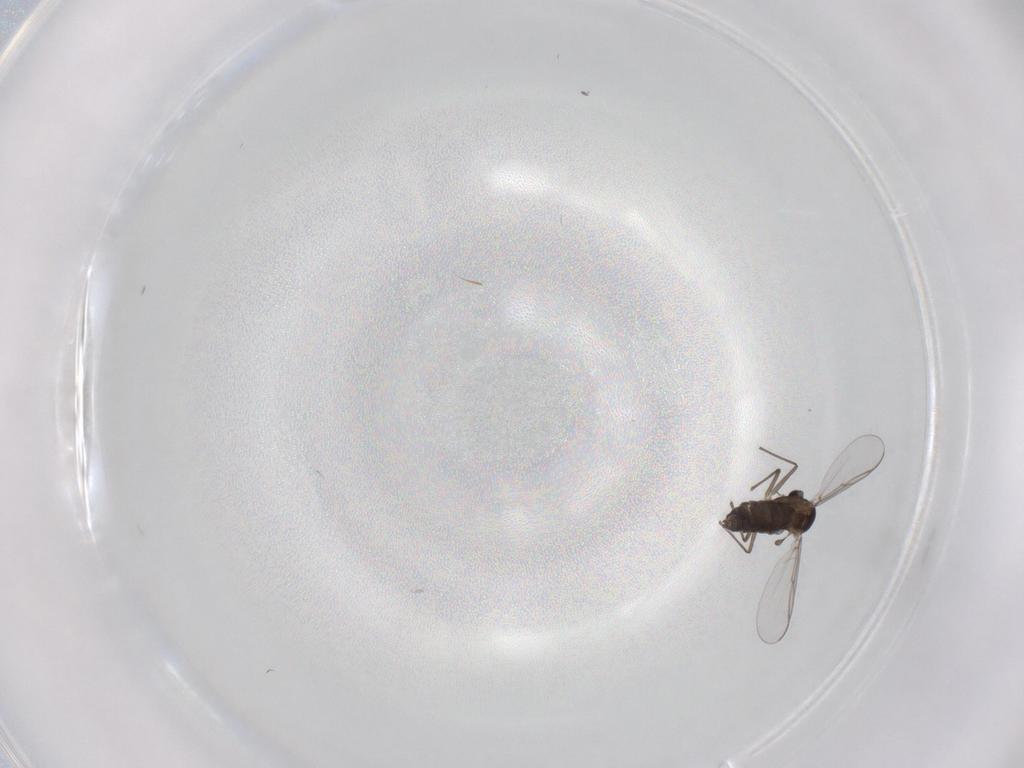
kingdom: Animalia
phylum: Arthropoda
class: Insecta
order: Diptera
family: Chironomidae
